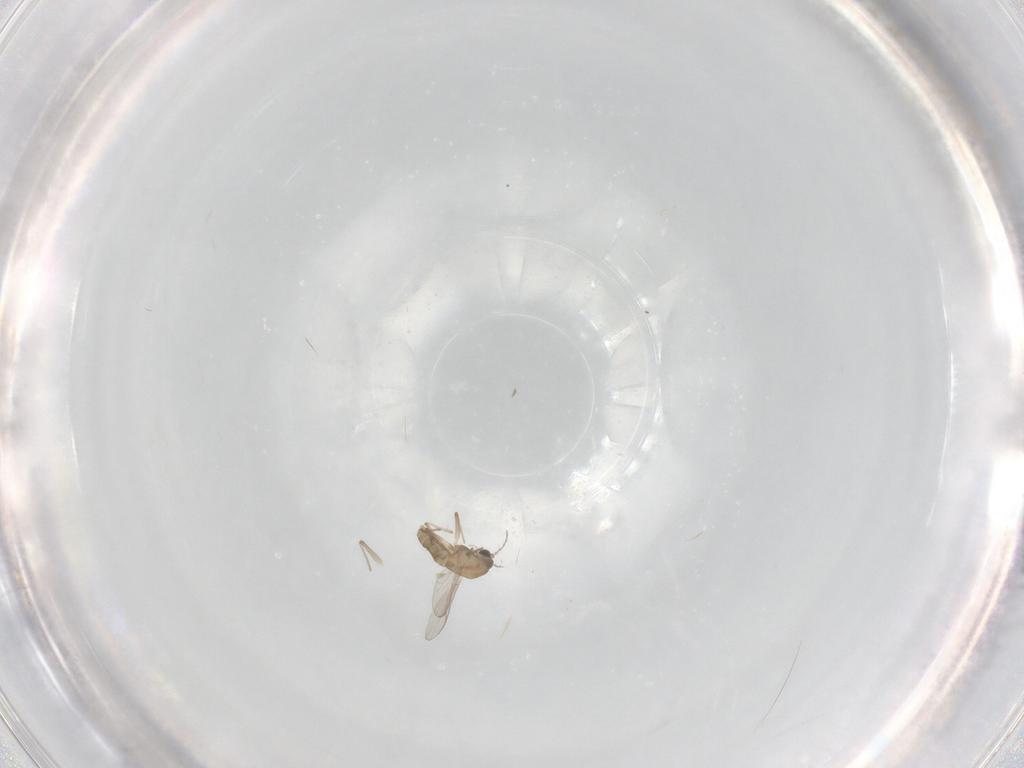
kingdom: Animalia
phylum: Arthropoda
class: Insecta
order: Diptera
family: Chironomidae
